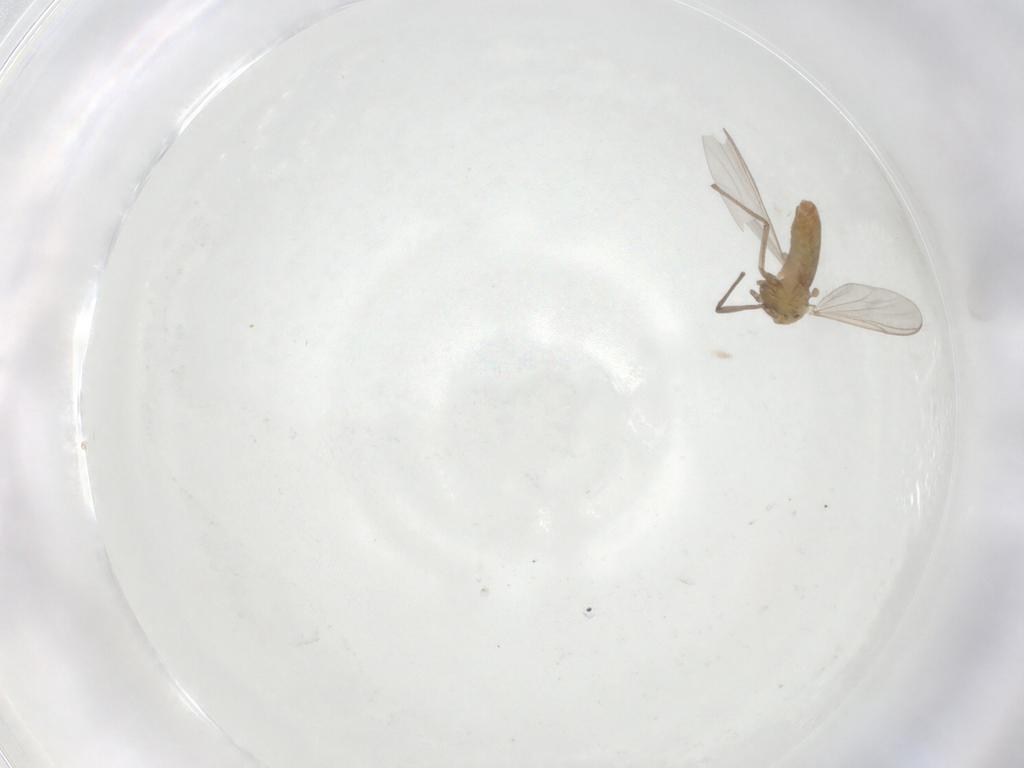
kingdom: Animalia
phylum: Arthropoda
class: Insecta
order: Diptera
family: Chironomidae
